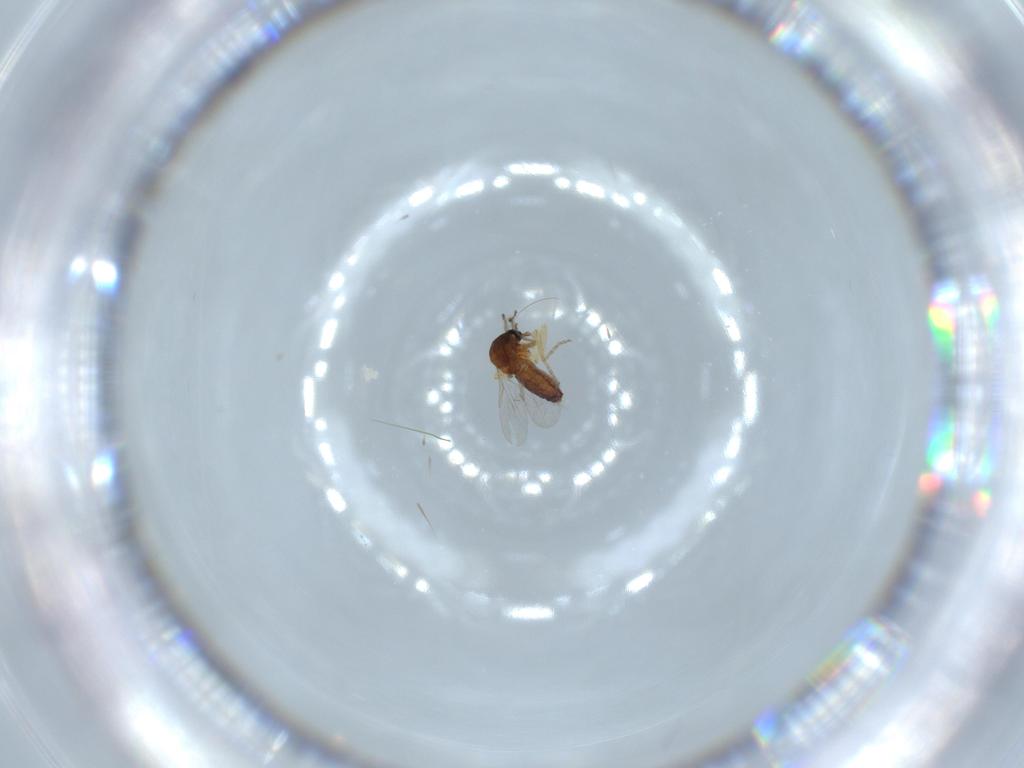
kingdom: Animalia
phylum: Arthropoda
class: Insecta
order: Diptera
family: Ceratopogonidae
